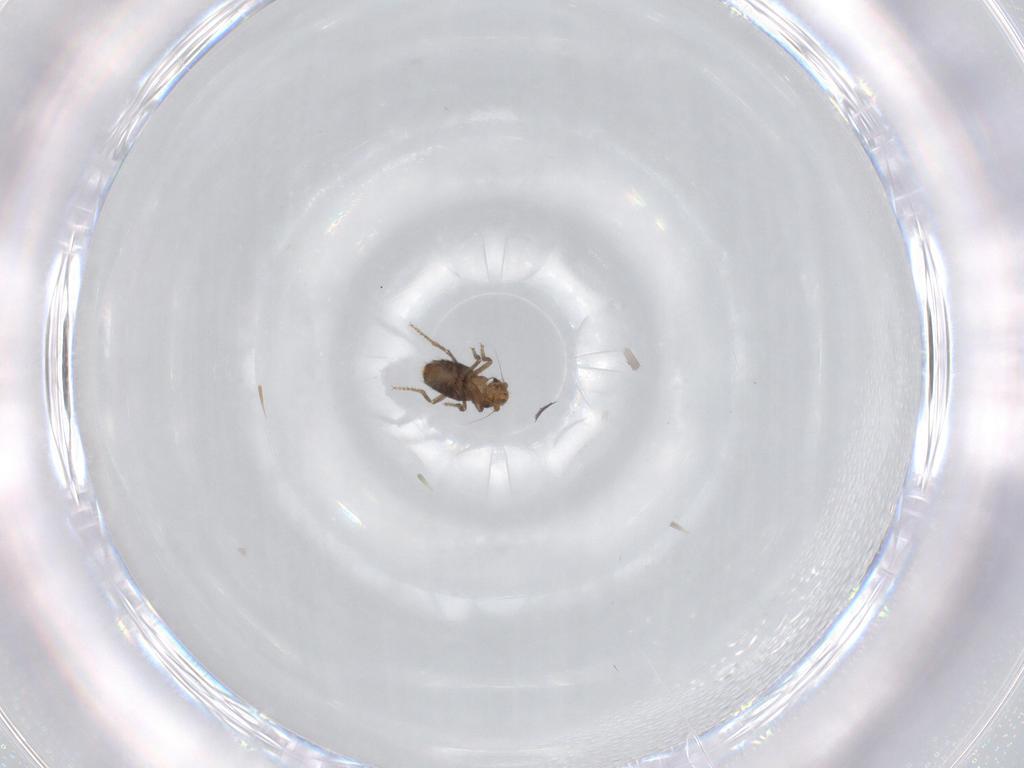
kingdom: Animalia
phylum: Arthropoda
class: Insecta
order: Diptera
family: Phoridae
